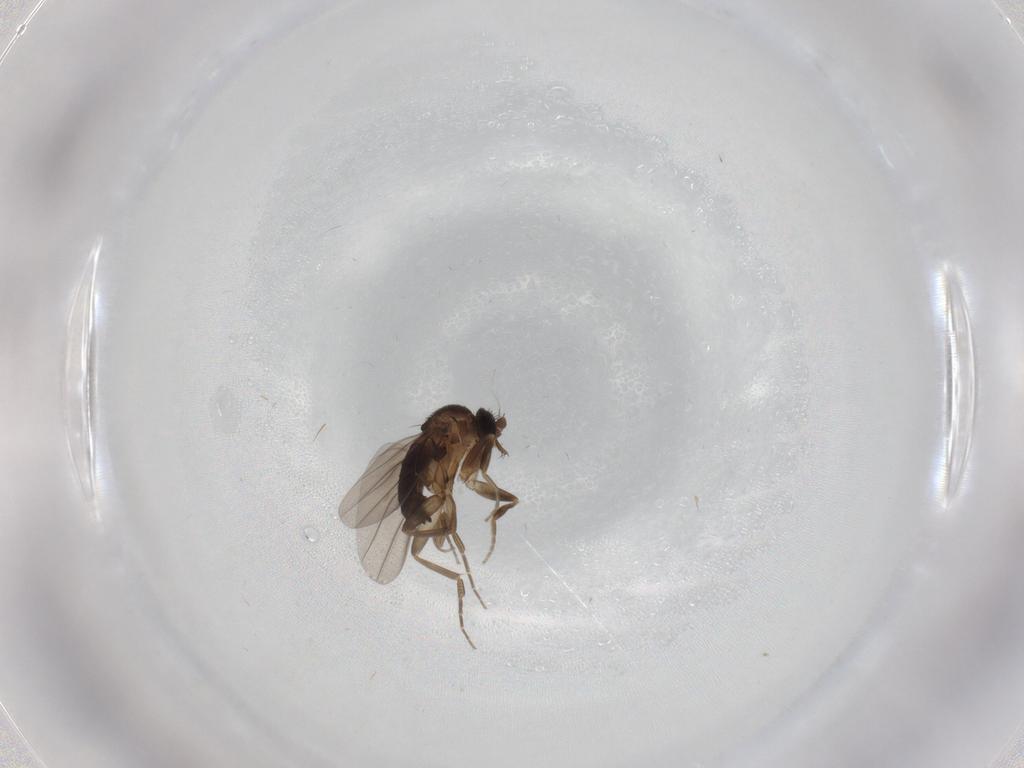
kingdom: Animalia
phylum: Arthropoda
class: Insecta
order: Diptera
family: Phoridae
